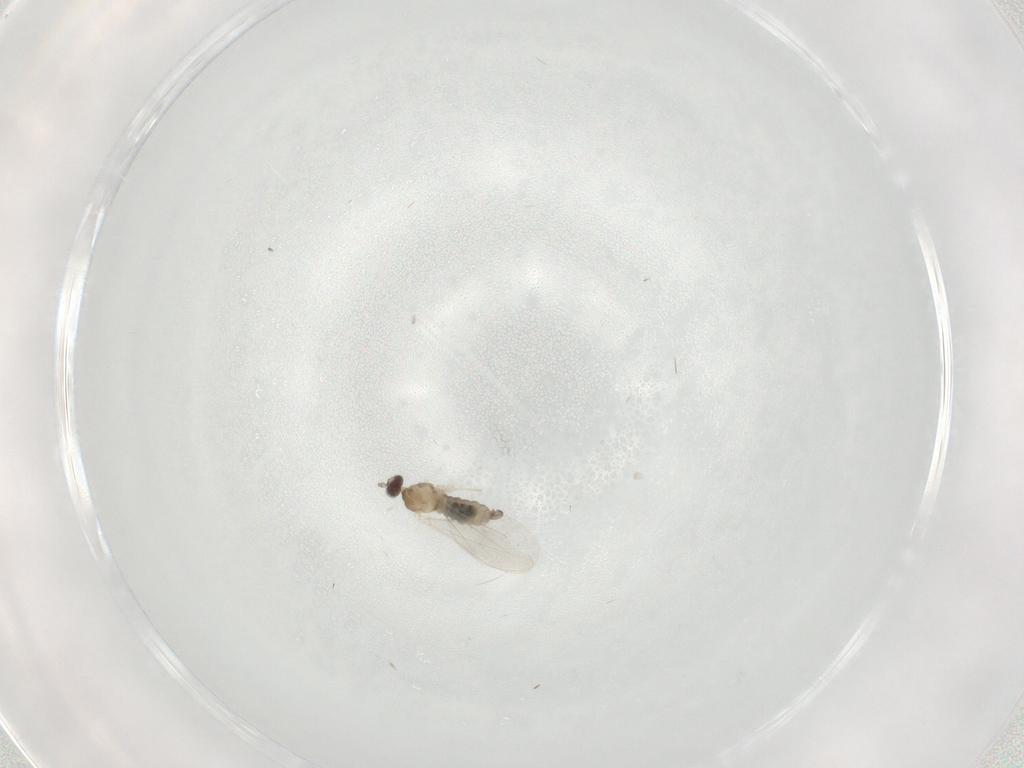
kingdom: Animalia
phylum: Arthropoda
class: Insecta
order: Diptera
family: Cecidomyiidae
